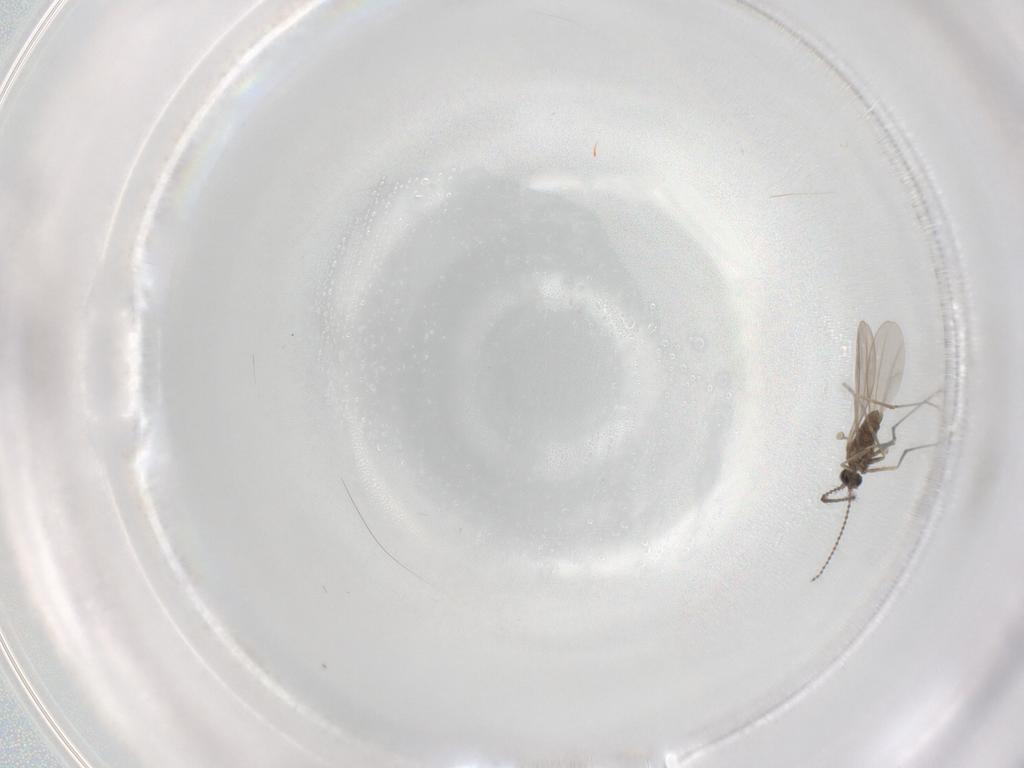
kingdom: Animalia
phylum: Arthropoda
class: Insecta
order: Diptera
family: Cecidomyiidae
